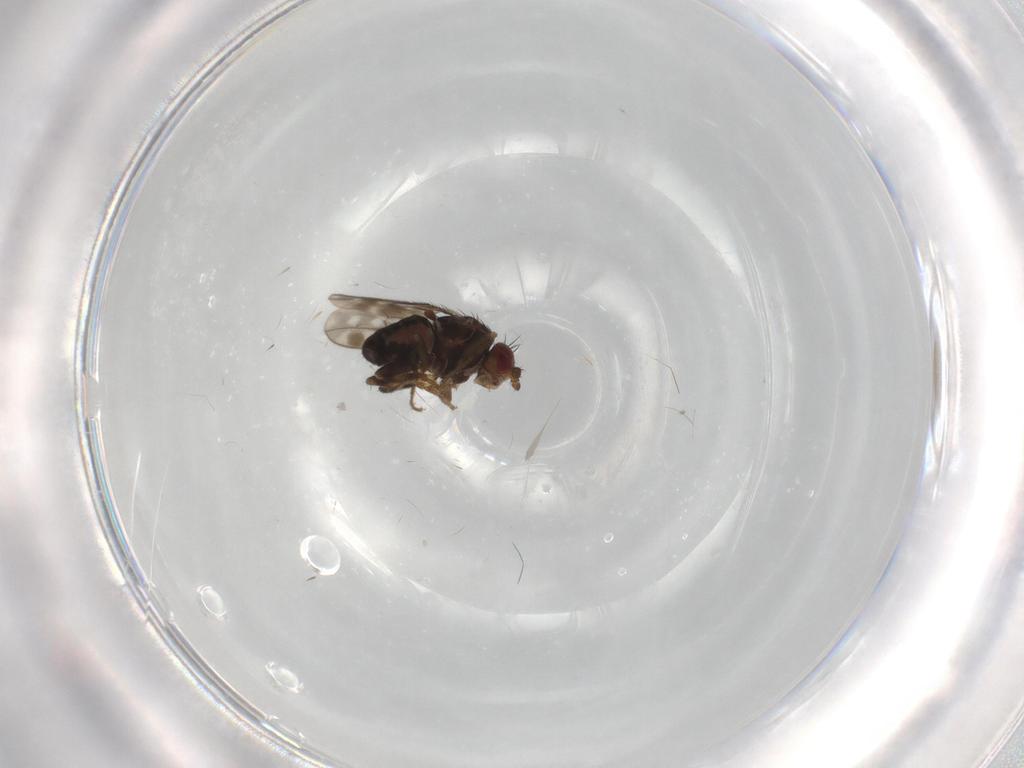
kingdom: Animalia
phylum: Arthropoda
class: Insecta
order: Diptera
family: Sphaeroceridae
